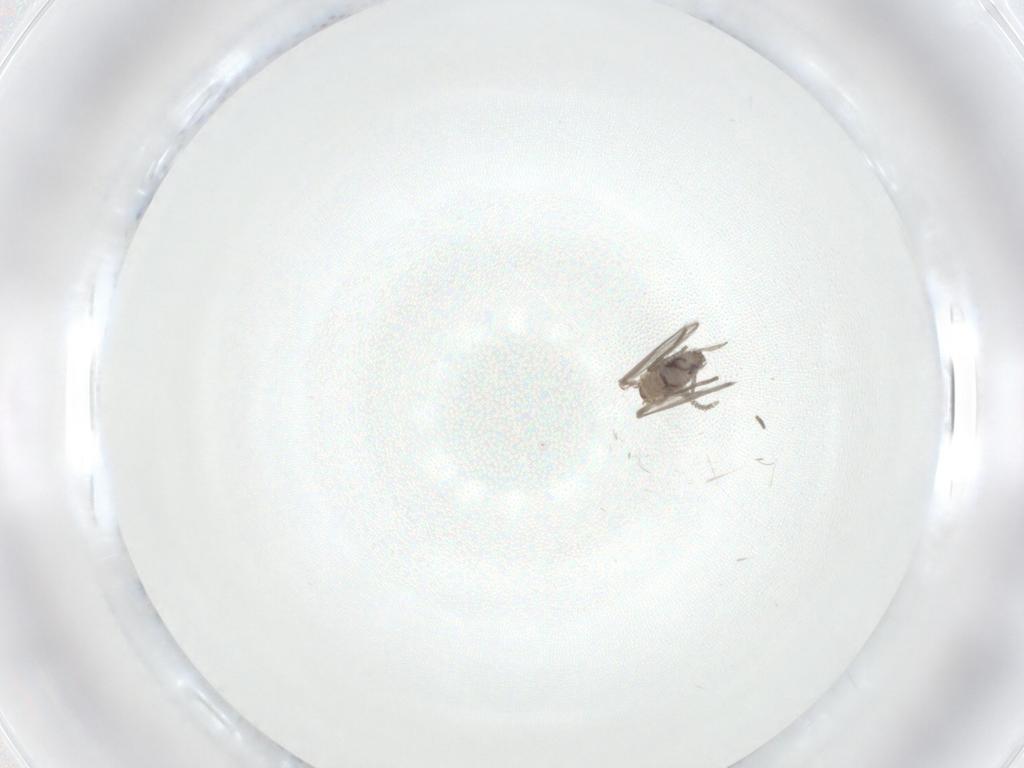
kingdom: Animalia
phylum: Arthropoda
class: Insecta
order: Diptera
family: Psychodidae
